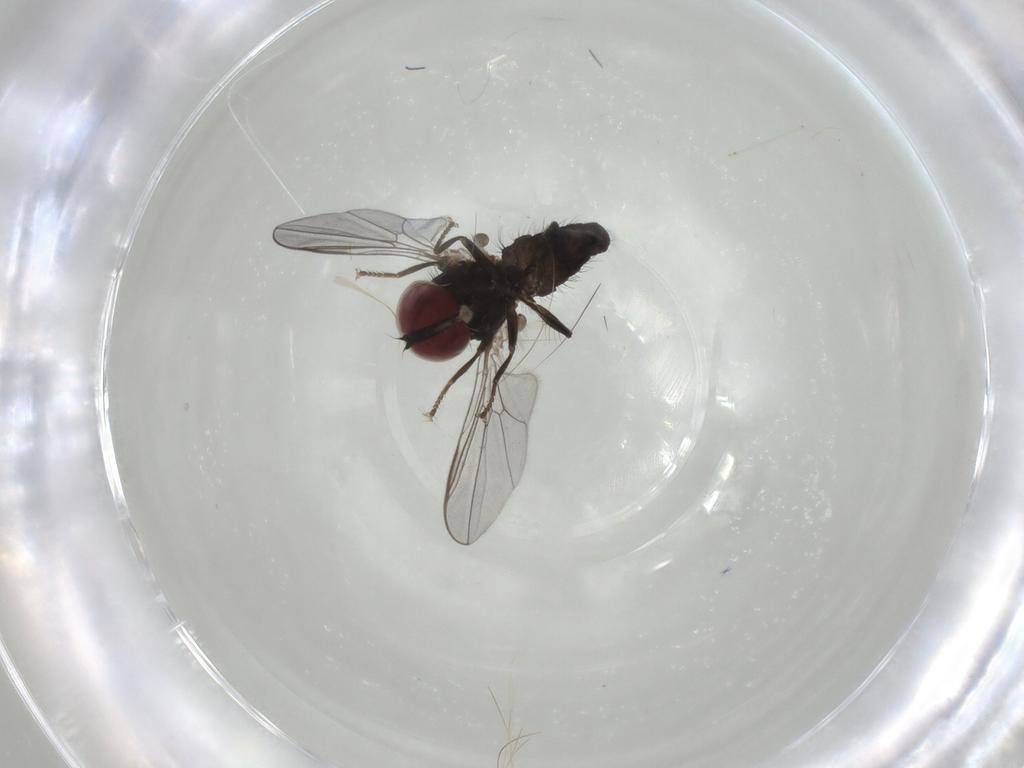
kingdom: Animalia
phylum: Arthropoda
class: Insecta
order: Diptera
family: Pipunculidae
